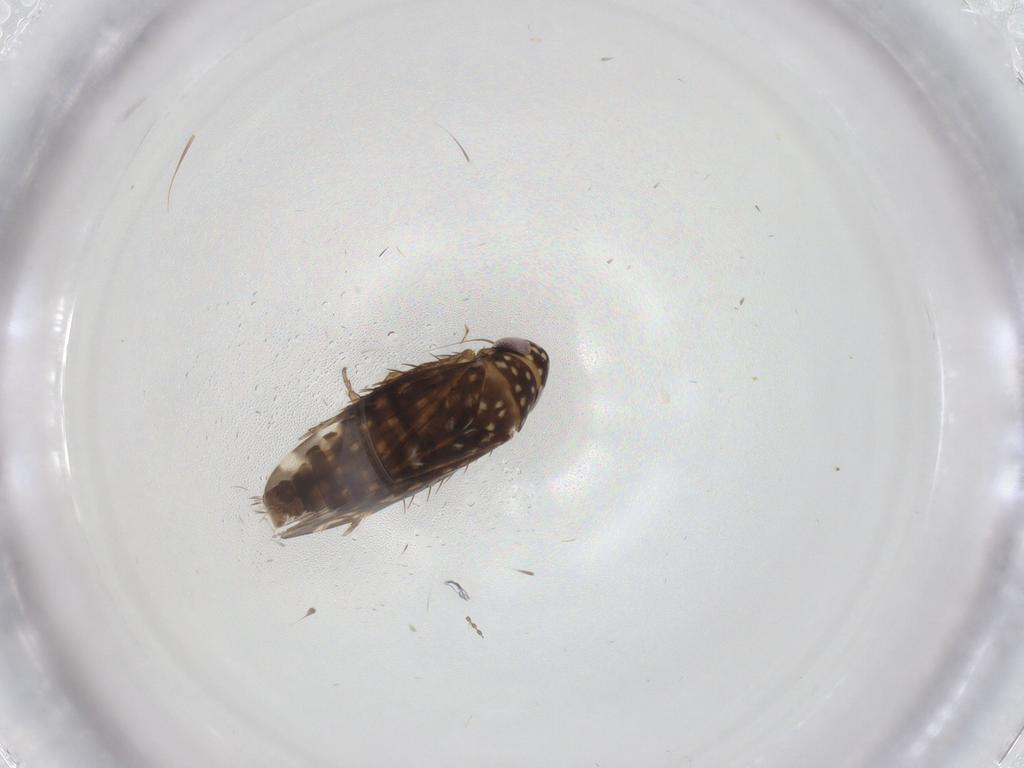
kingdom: Animalia
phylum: Arthropoda
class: Insecta
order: Hemiptera
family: Cicadellidae
